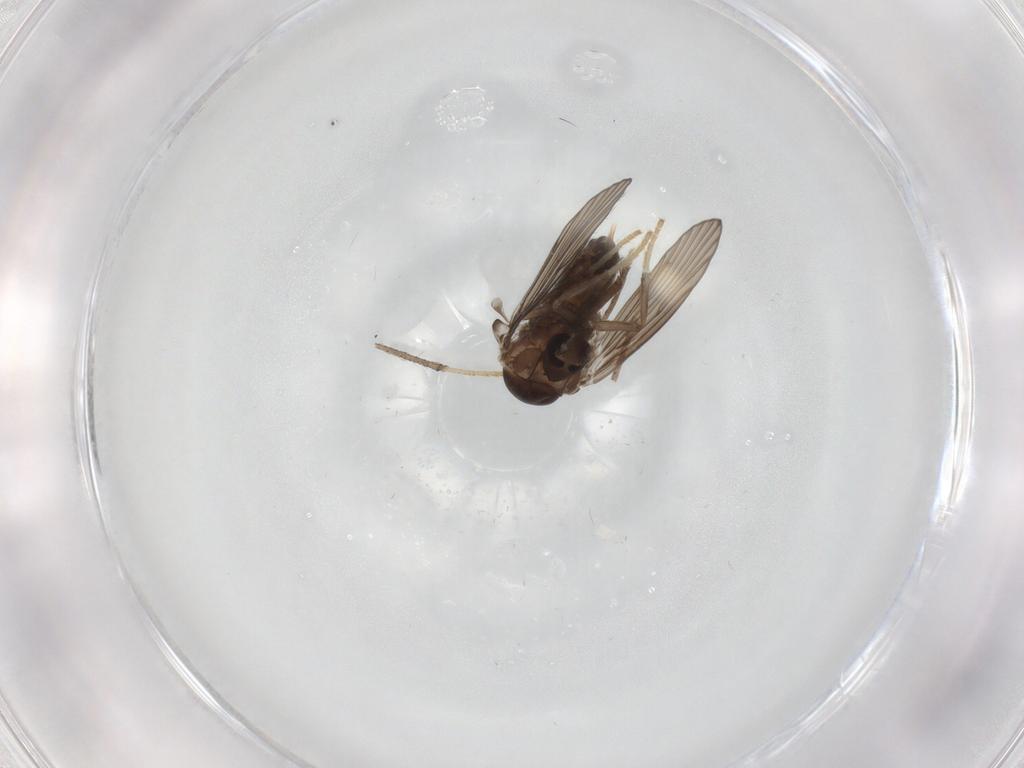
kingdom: Animalia
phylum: Arthropoda
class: Insecta
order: Diptera
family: Psychodidae
